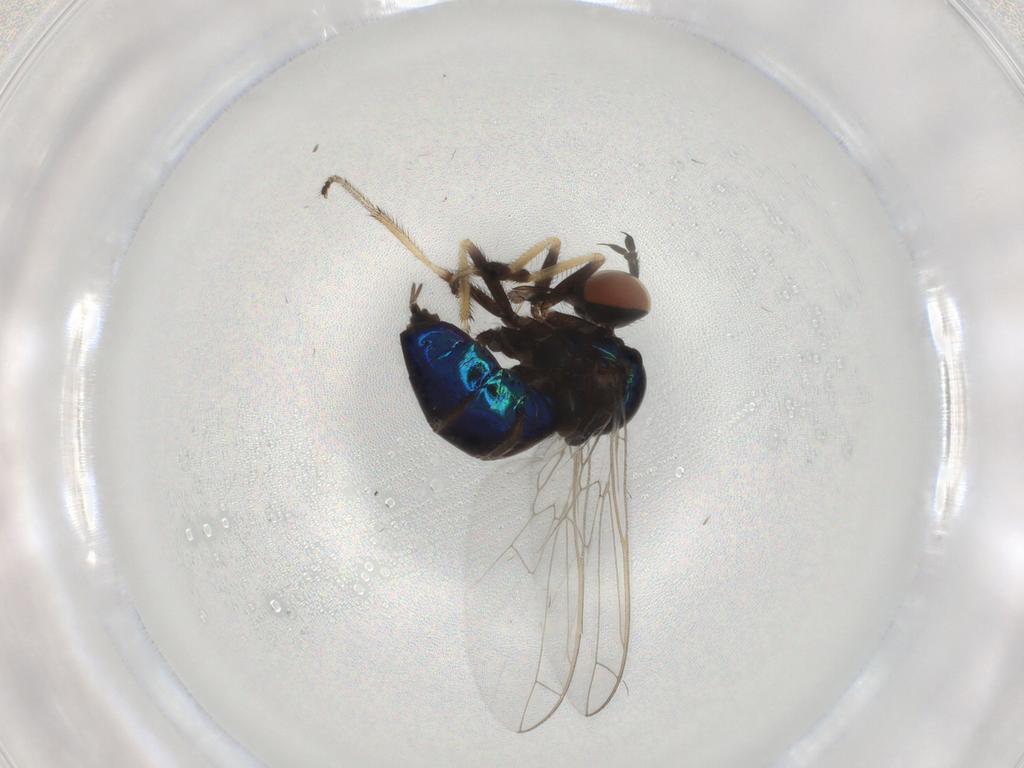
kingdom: Animalia
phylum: Arthropoda
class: Insecta
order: Diptera
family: Empididae
